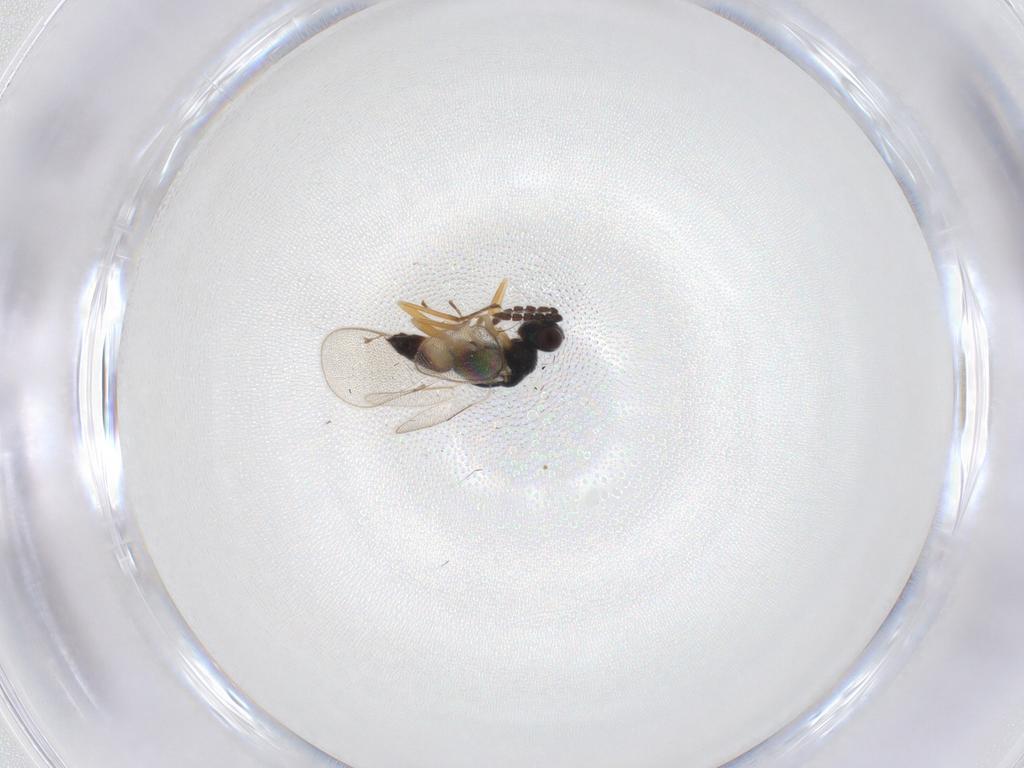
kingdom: Animalia
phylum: Arthropoda
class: Insecta
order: Hymenoptera
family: Eulophidae
